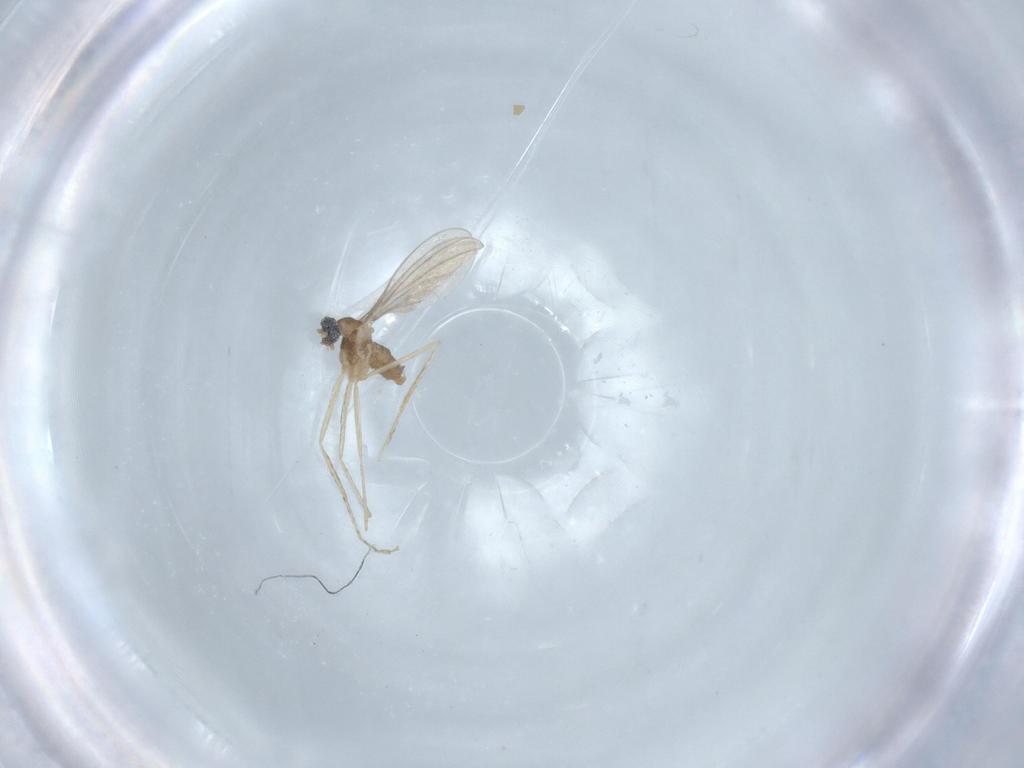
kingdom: Animalia
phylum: Arthropoda
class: Insecta
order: Diptera
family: Cecidomyiidae
